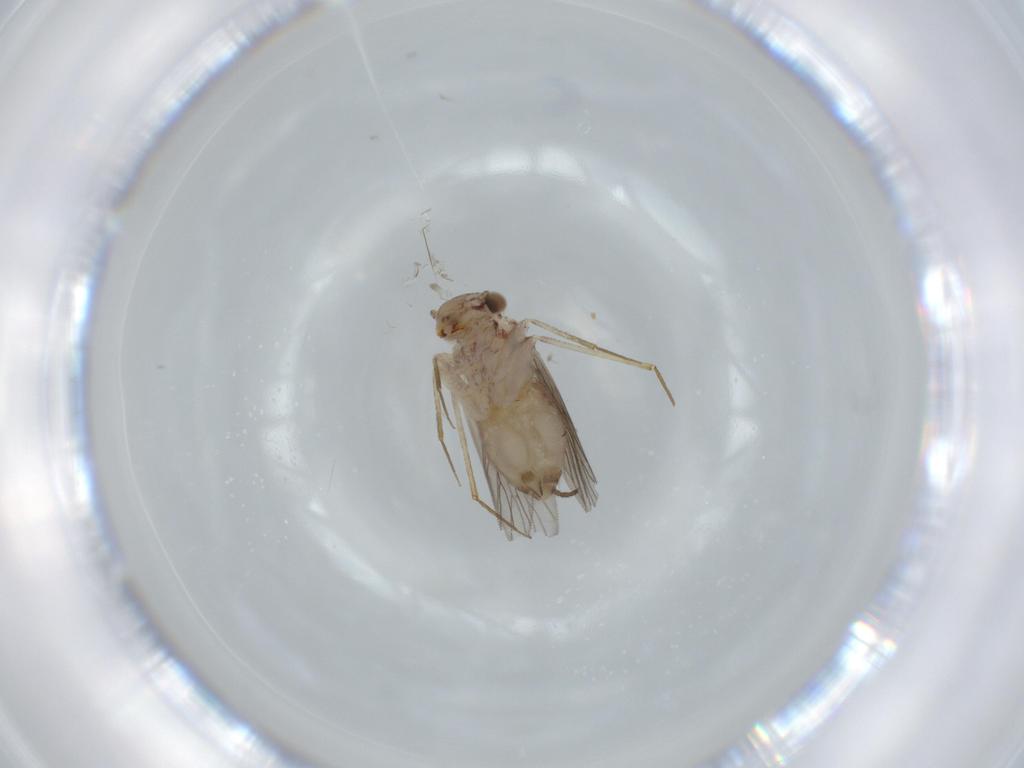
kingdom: Animalia
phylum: Arthropoda
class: Insecta
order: Psocodea
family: Lepidopsocidae
